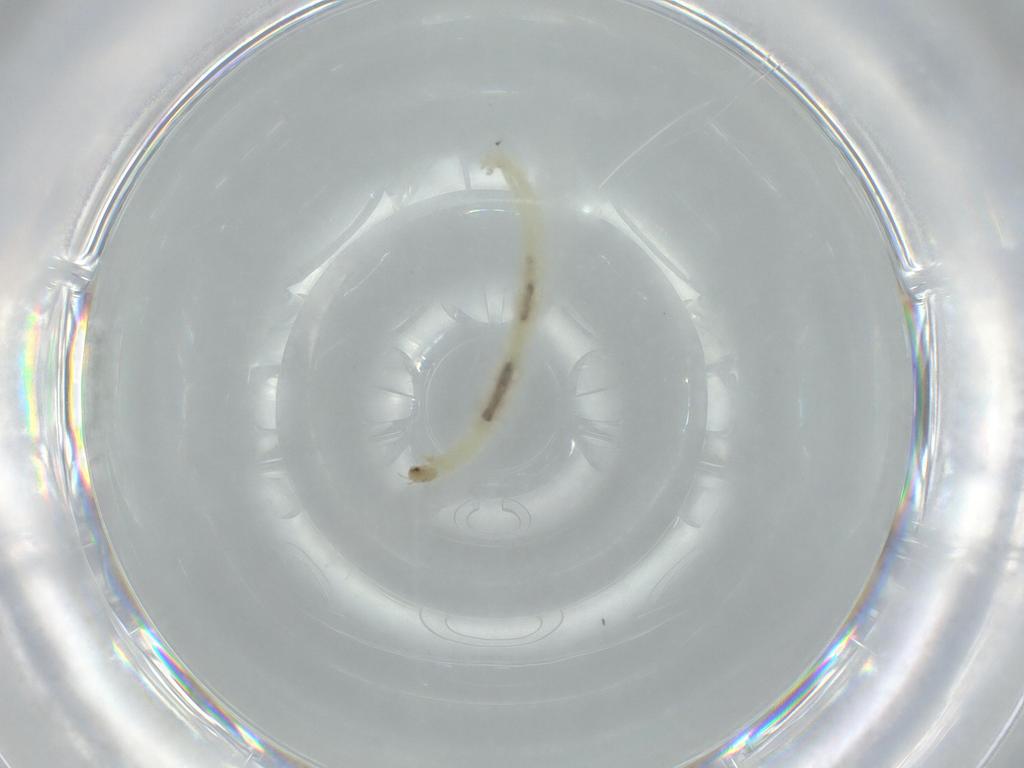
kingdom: Animalia
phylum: Arthropoda
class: Insecta
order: Diptera
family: Chironomidae
